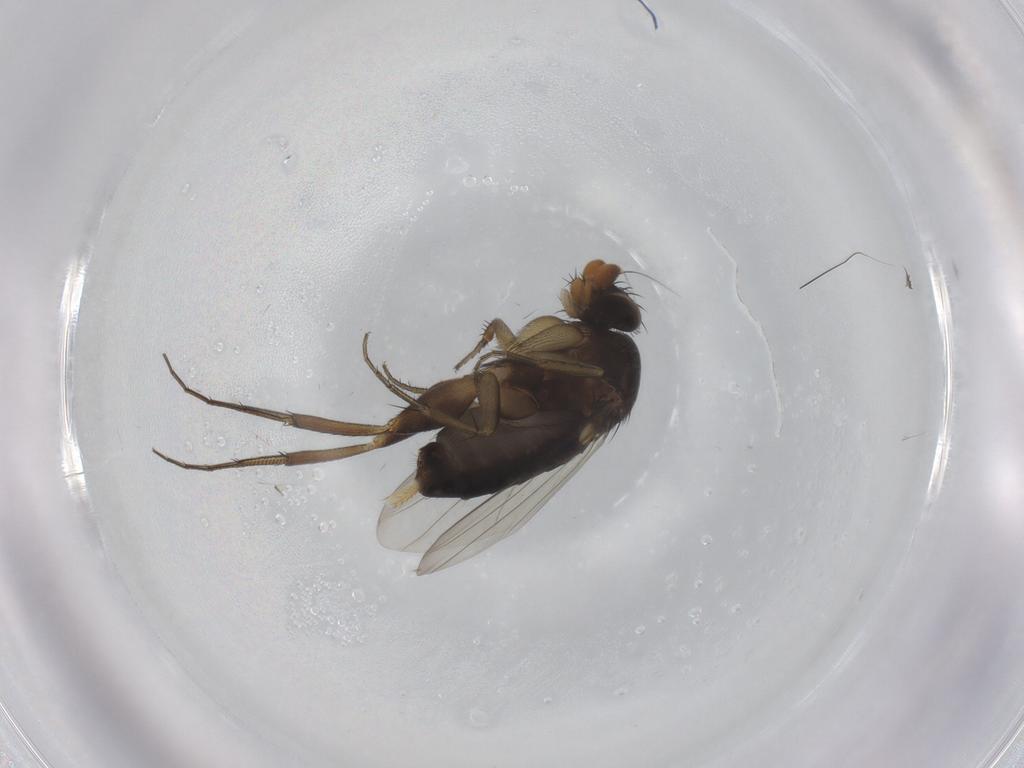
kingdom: Animalia
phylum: Arthropoda
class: Insecta
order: Diptera
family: Phoridae
